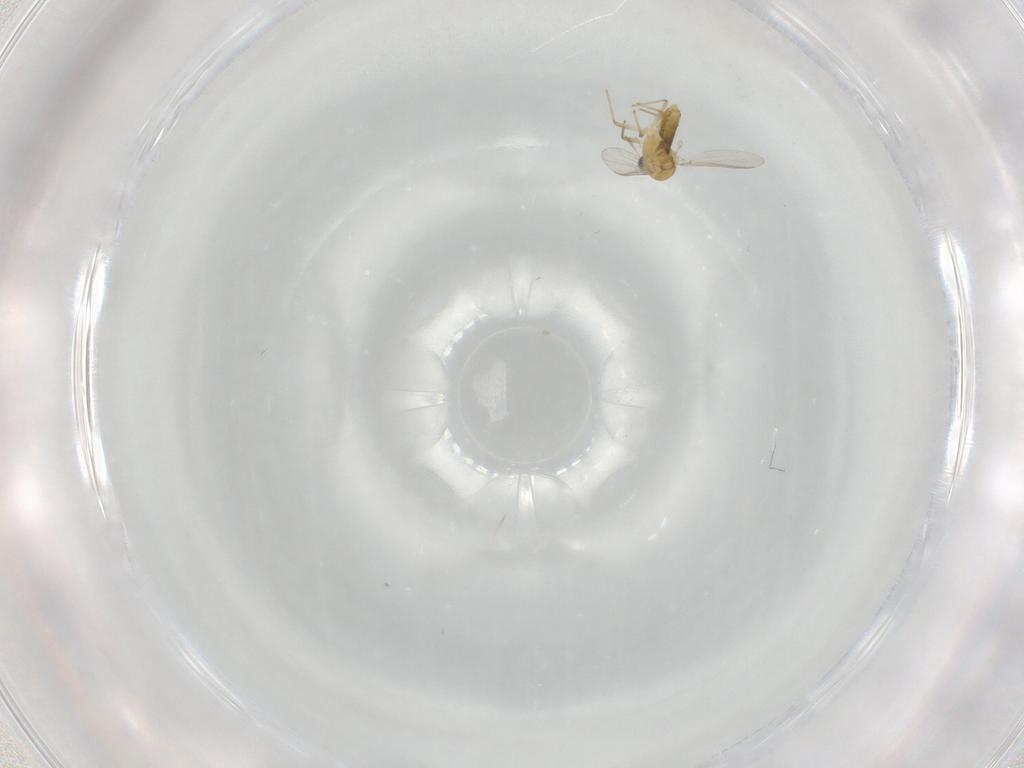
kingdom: Animalia
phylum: Arthropoda
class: Insecta
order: Diptera
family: Chironomidae
